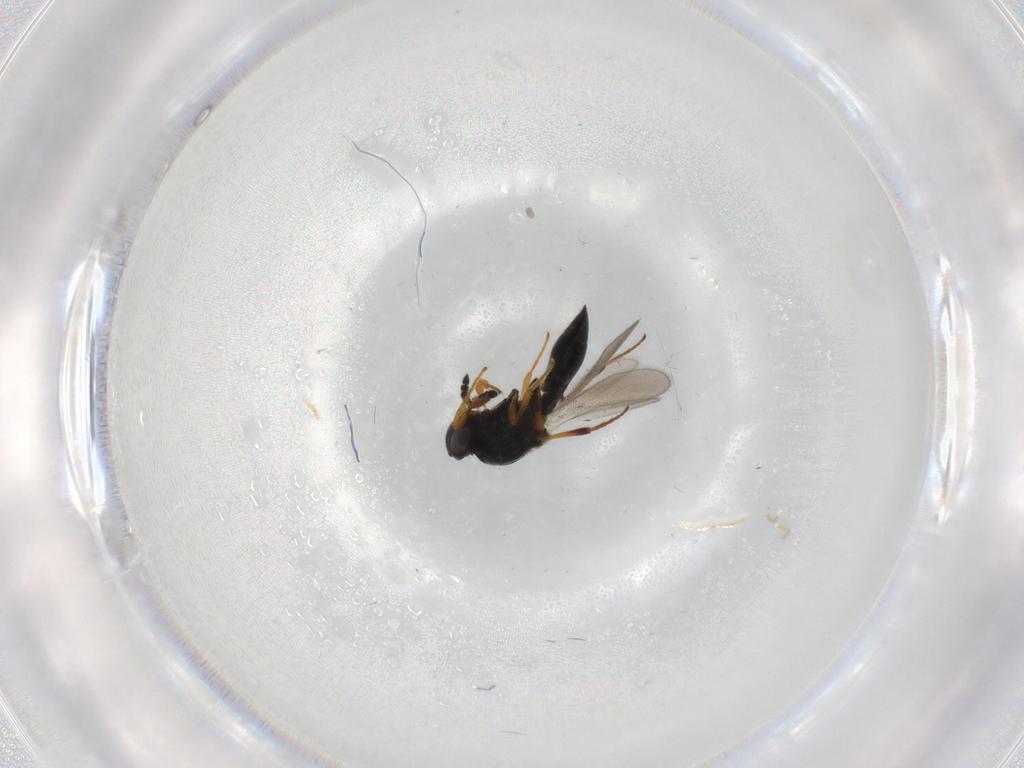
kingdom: Animalia
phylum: Arthropoda
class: Insecta
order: Hymenoptera
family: Platygastridae
